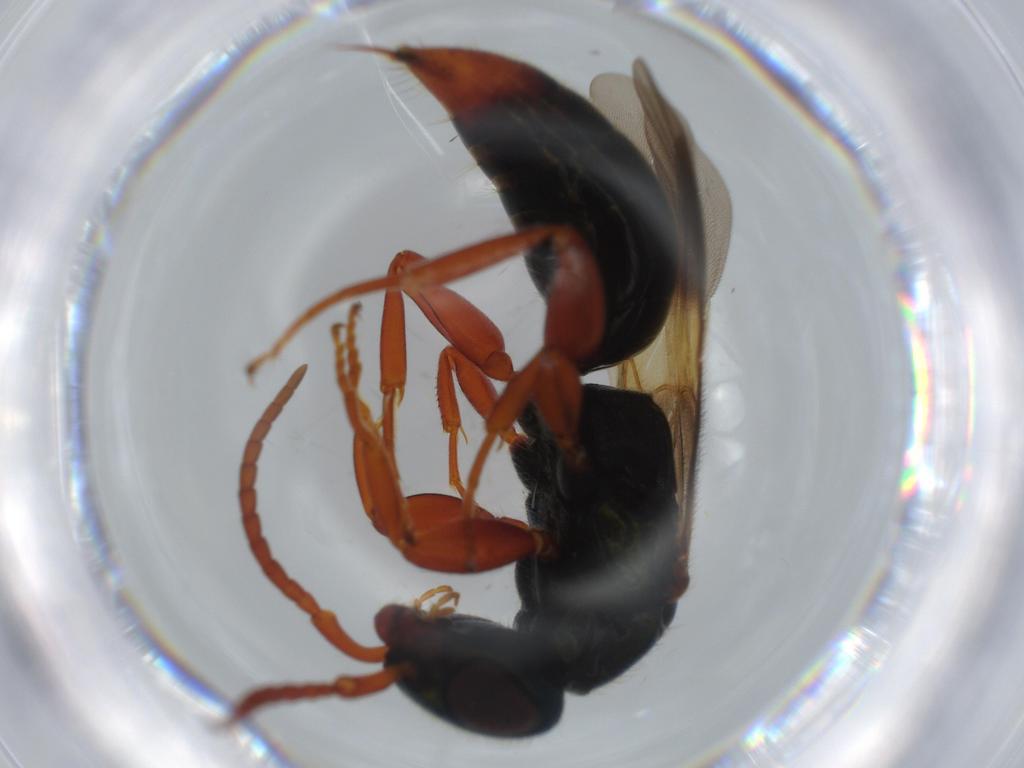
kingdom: Animalia
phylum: Arthropoda
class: Insecta
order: Hymenoptera
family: Bethylidae
